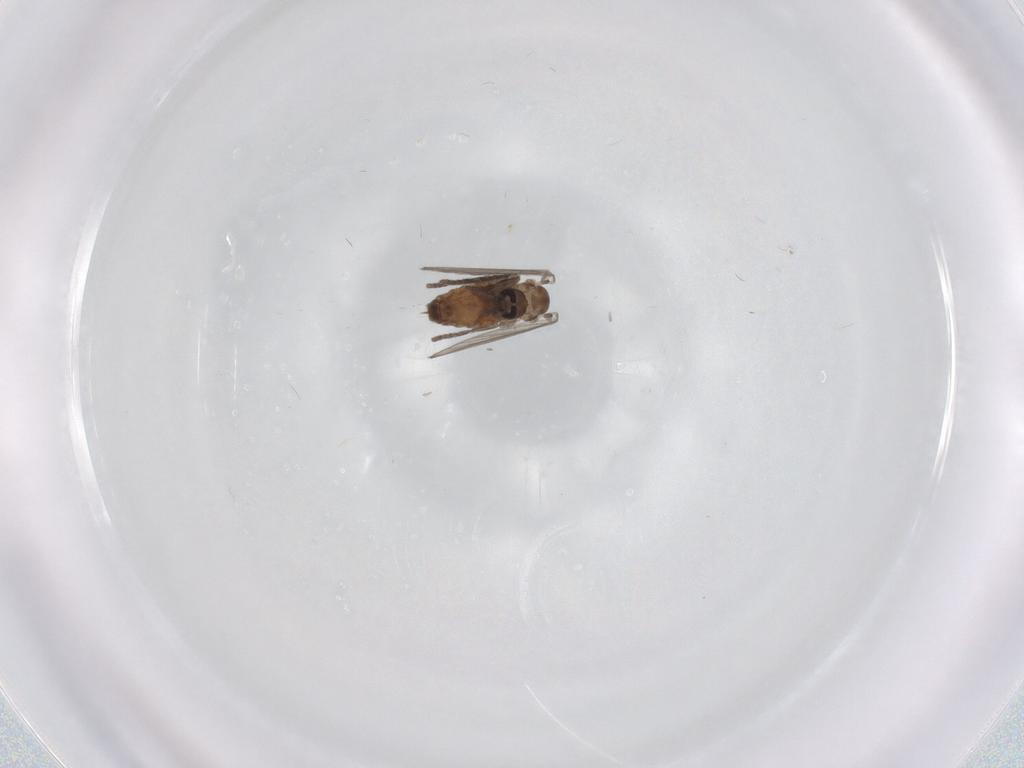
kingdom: Animalia
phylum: Arthropoda
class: Insecta
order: Diptera
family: Psychodidae
